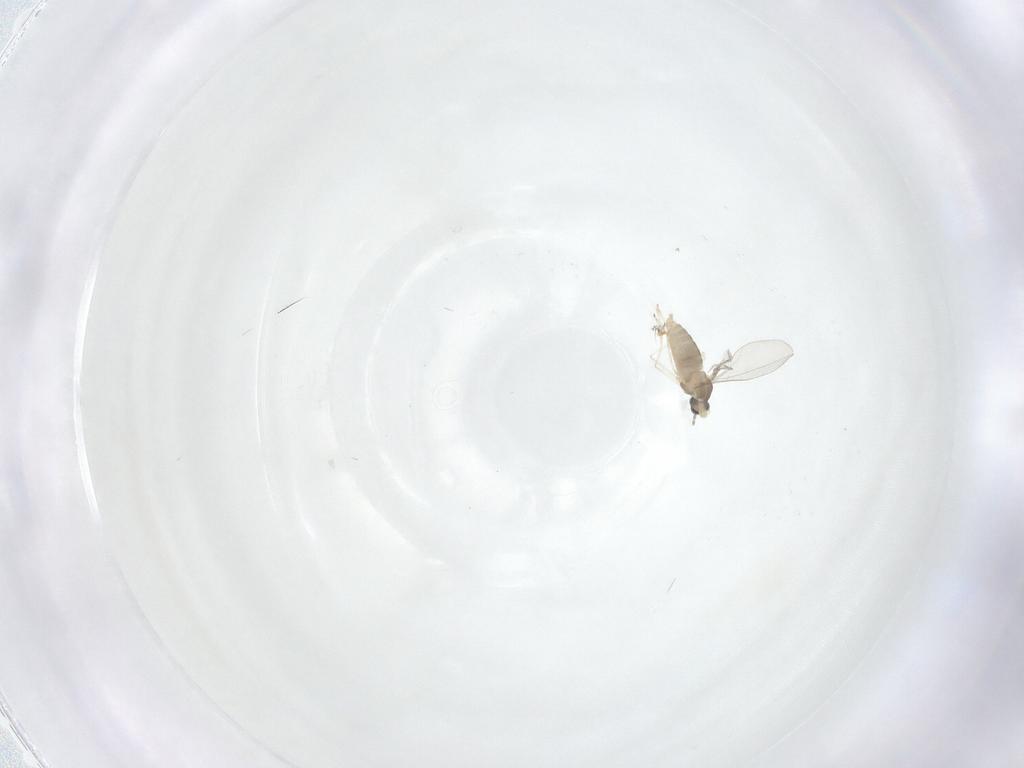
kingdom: Animalia
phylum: Arthropoda
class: Insecta
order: Diptera
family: Cecidomyiidae
